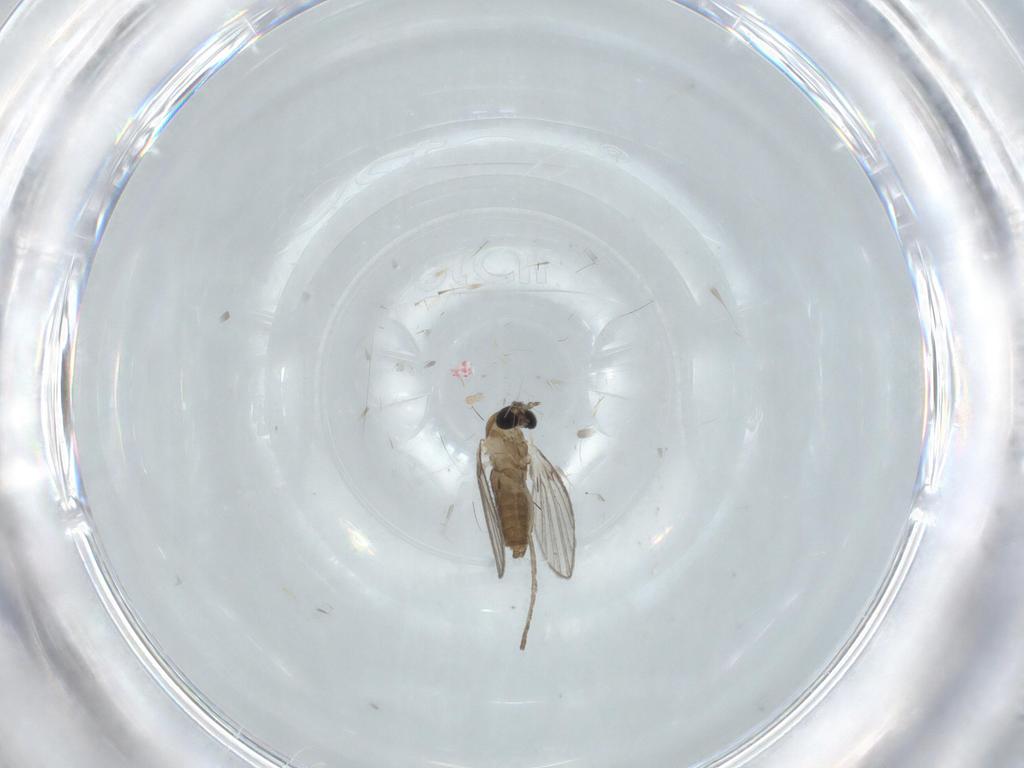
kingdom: Animalia
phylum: Arthropoda
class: Insecta
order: Diptera
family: Psychodidae
